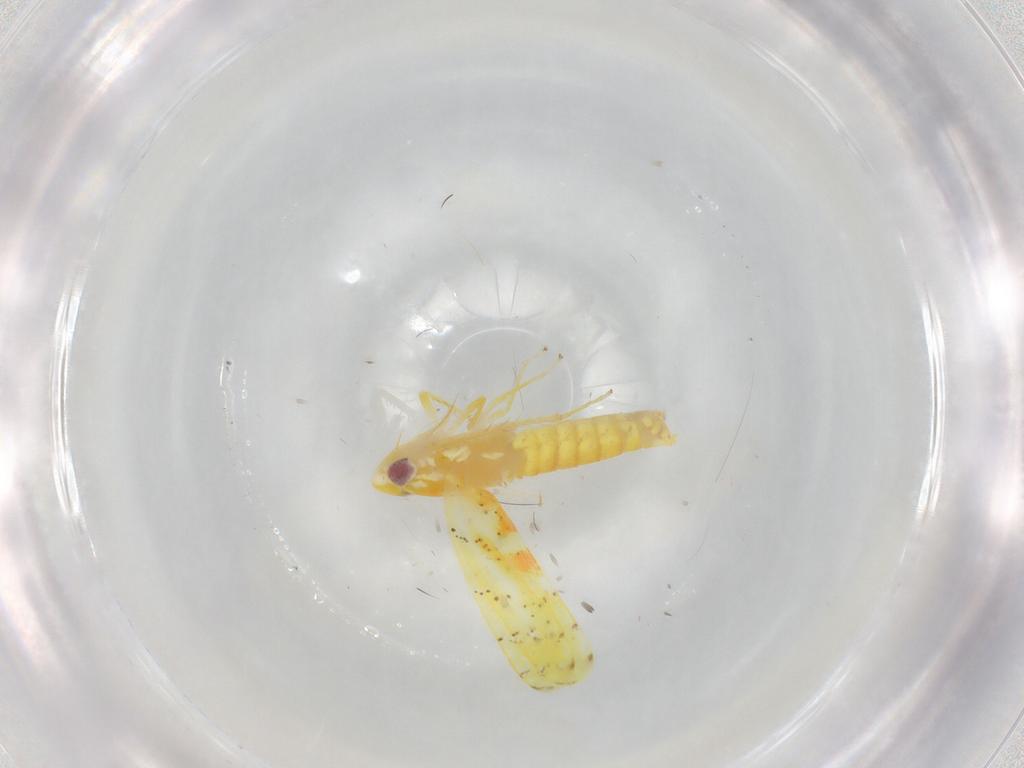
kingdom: Animalia
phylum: Arthropoda
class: Insecta
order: Hemiptera
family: Cicadellidae
